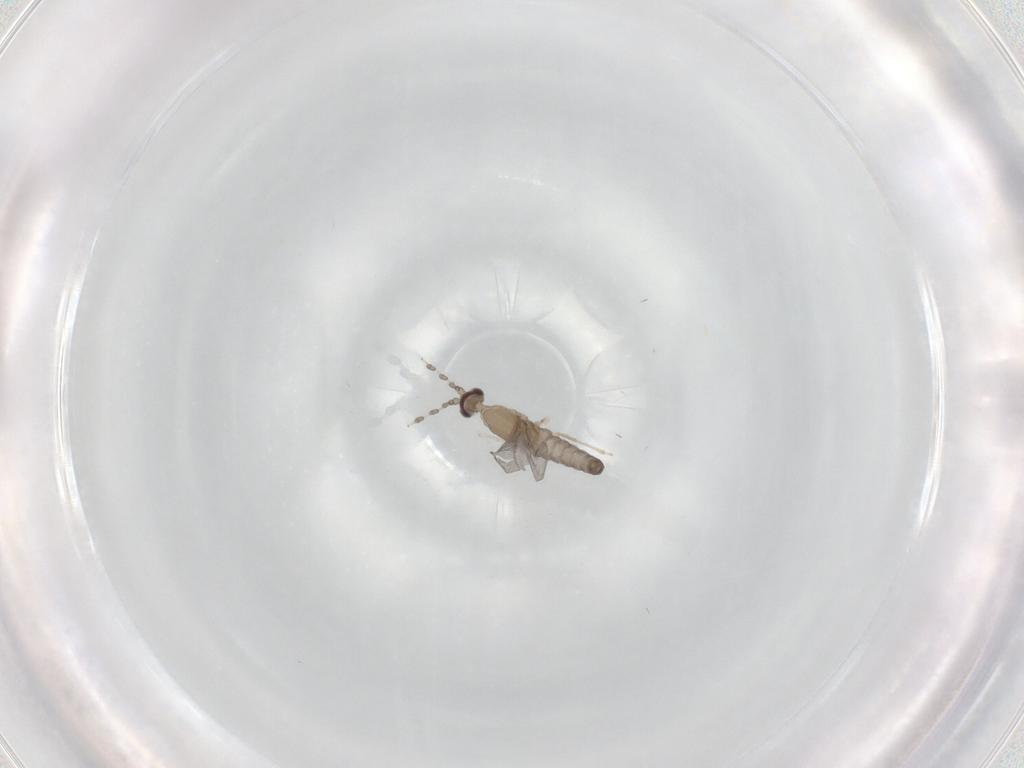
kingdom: Animalia
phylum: Arthropoda
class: Insecta
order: Diptera
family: Cecidomyiidae
